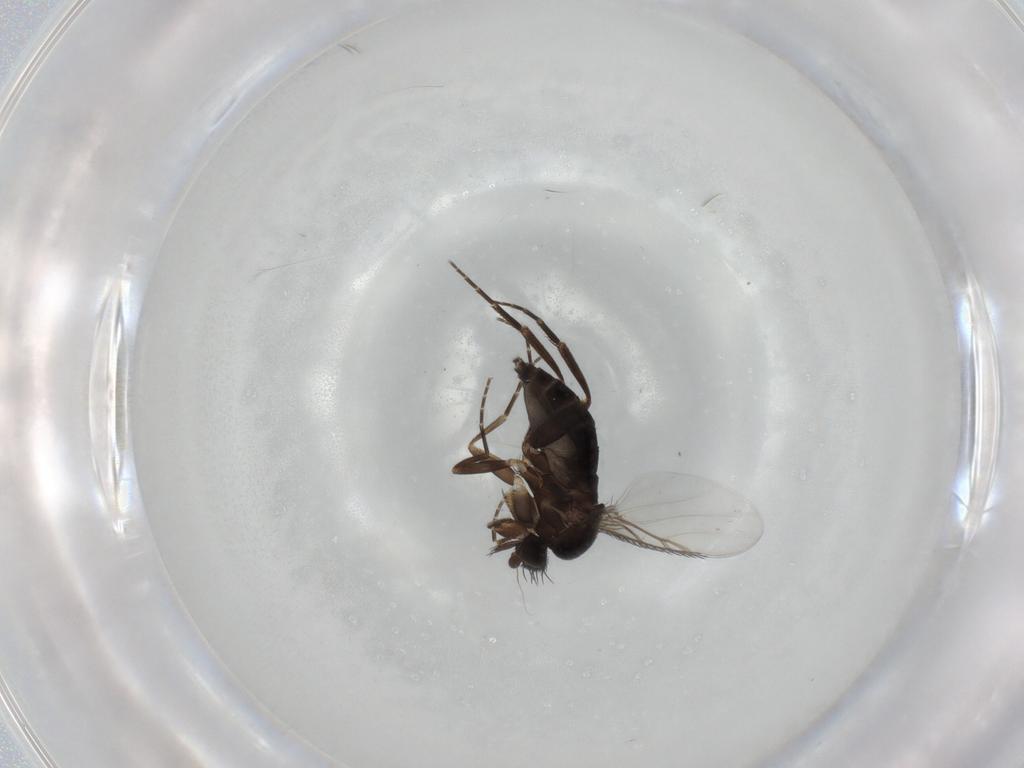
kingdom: Animalia
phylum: Arthropoda
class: Insecta
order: Diptera
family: Phoridae
